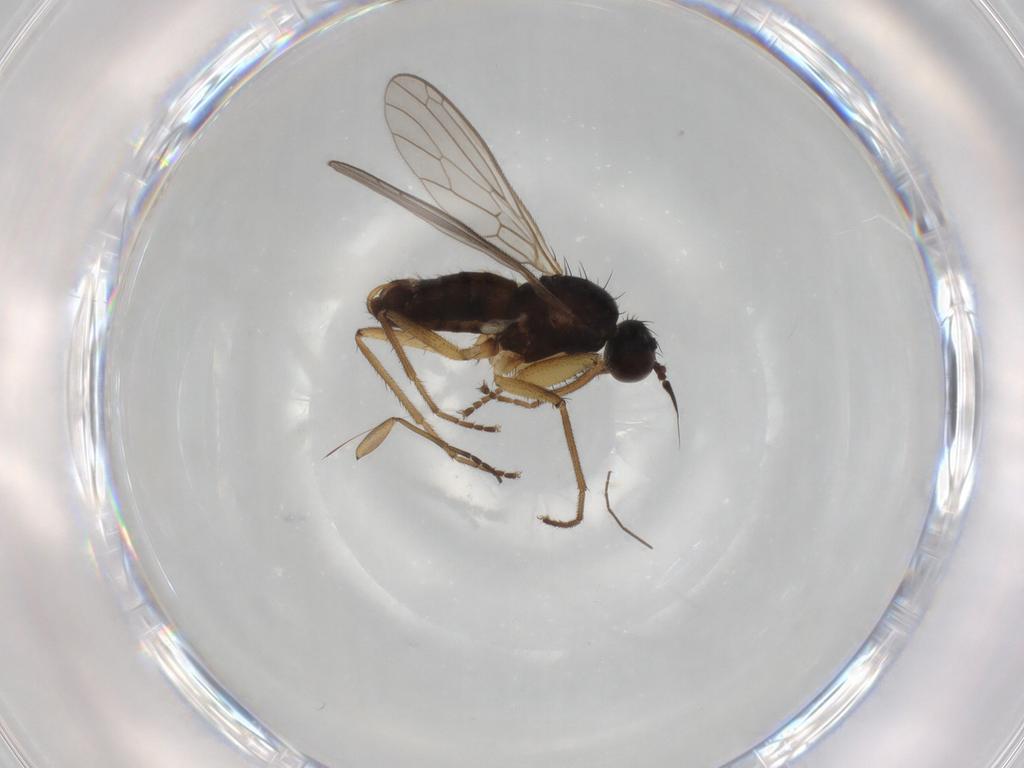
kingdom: Animalia
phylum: Arthropoda
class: Insecta
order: Diptera
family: Empididae
